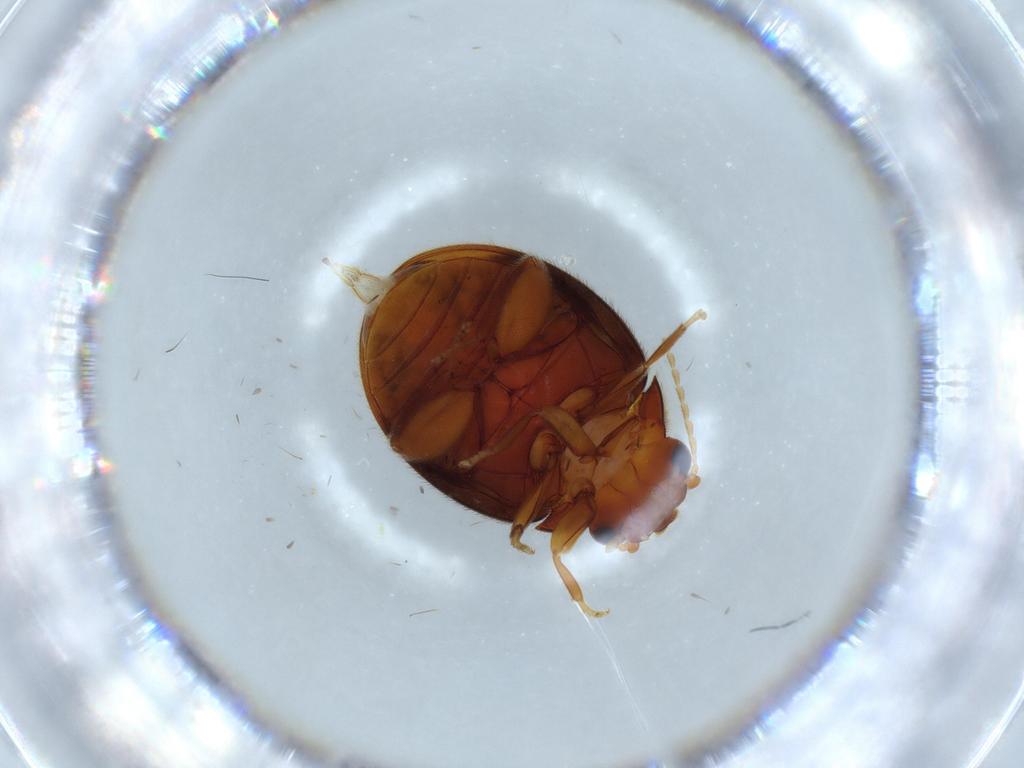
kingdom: Animalia
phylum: Arthropoda
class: Insecta
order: Coleoptera
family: Scirtidae
